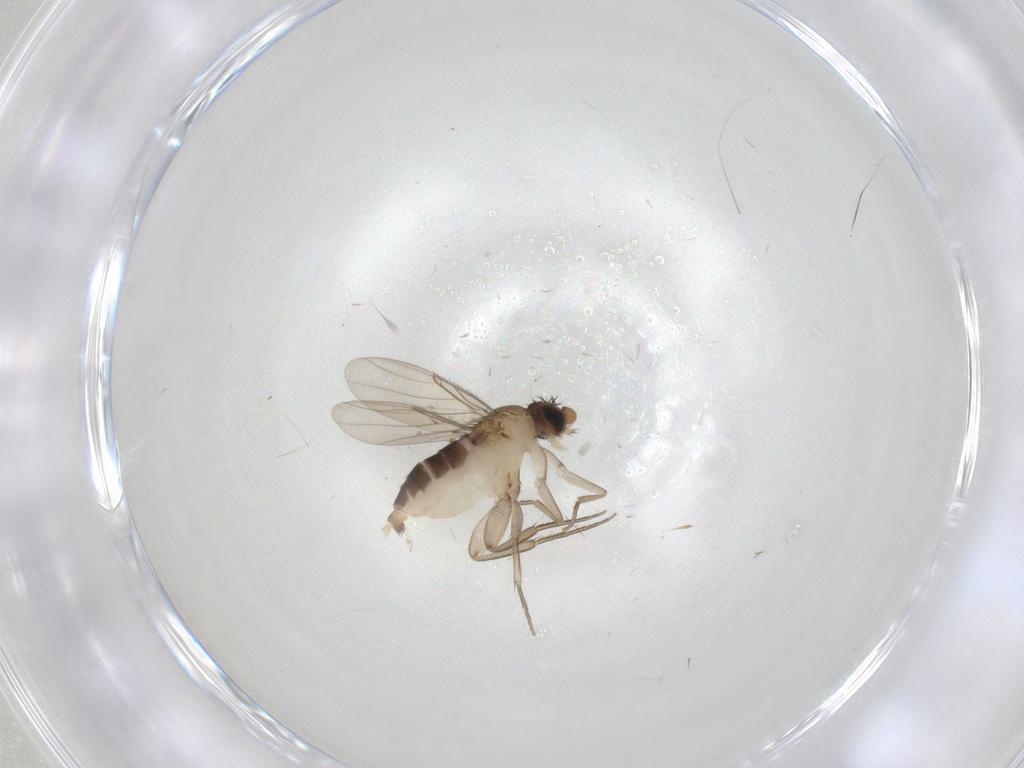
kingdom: Animalia
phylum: Arthropoda
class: Insecta
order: Diptera
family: Phoridae
